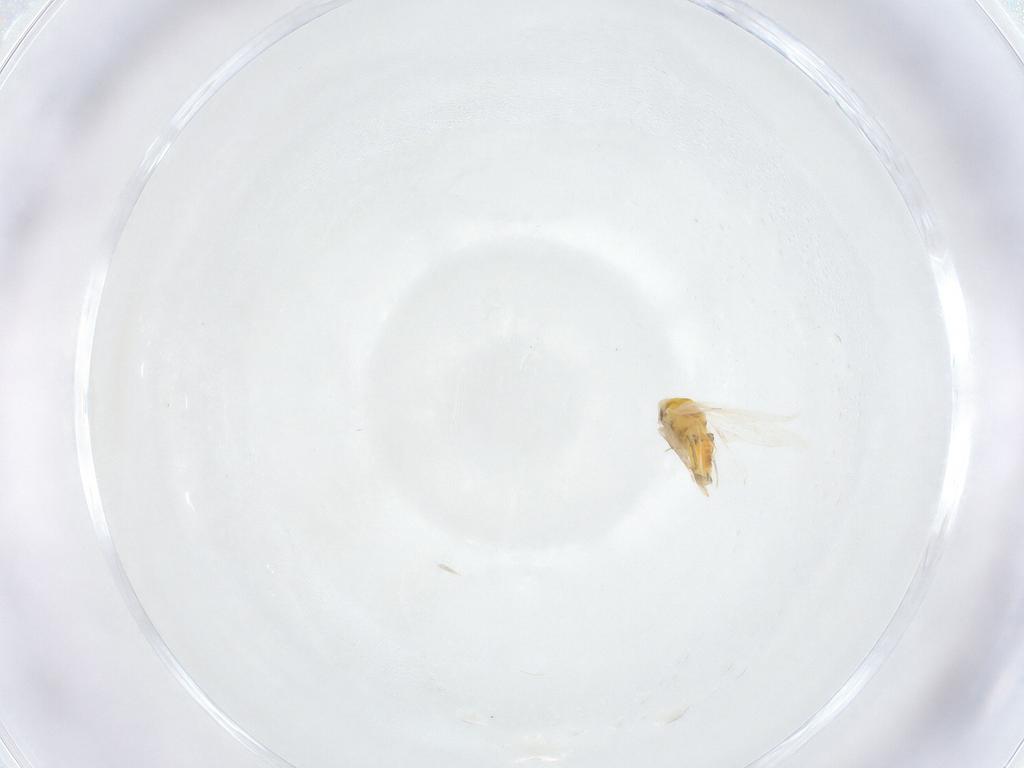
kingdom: Animalia
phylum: Arthropoda
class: Insecta
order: Hemiptera
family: Aleyrodidae
